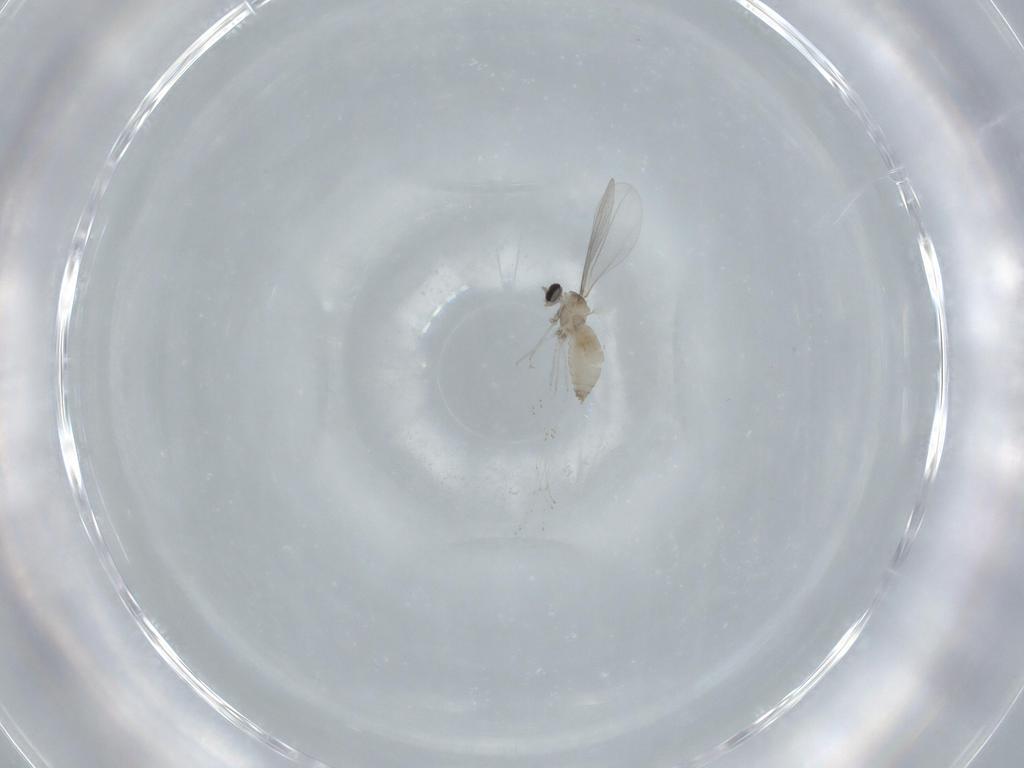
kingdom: Animalia
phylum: Arthropoda
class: Insecta
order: Diptera
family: Cecidomyiidae
